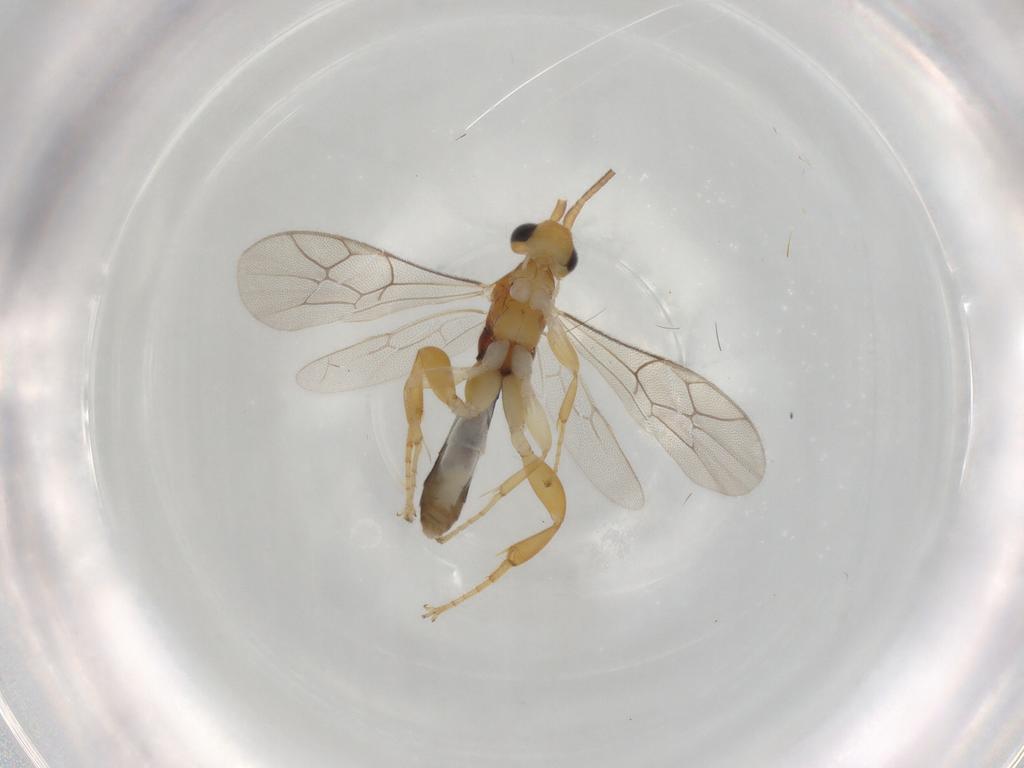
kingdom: Animalia
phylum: Arthropoda
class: Insecta
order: Hymenoptera
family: Ichneumonidae
